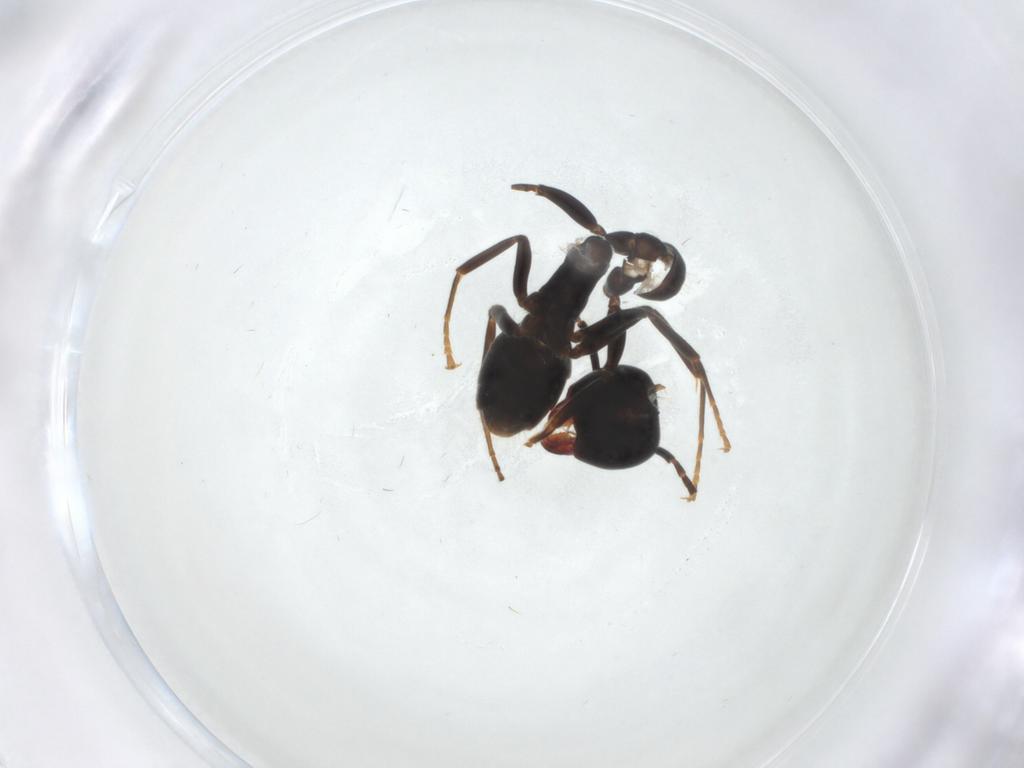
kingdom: Animalia
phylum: Arthropoda
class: Insecta
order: Hymenoptera
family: Formicidae
